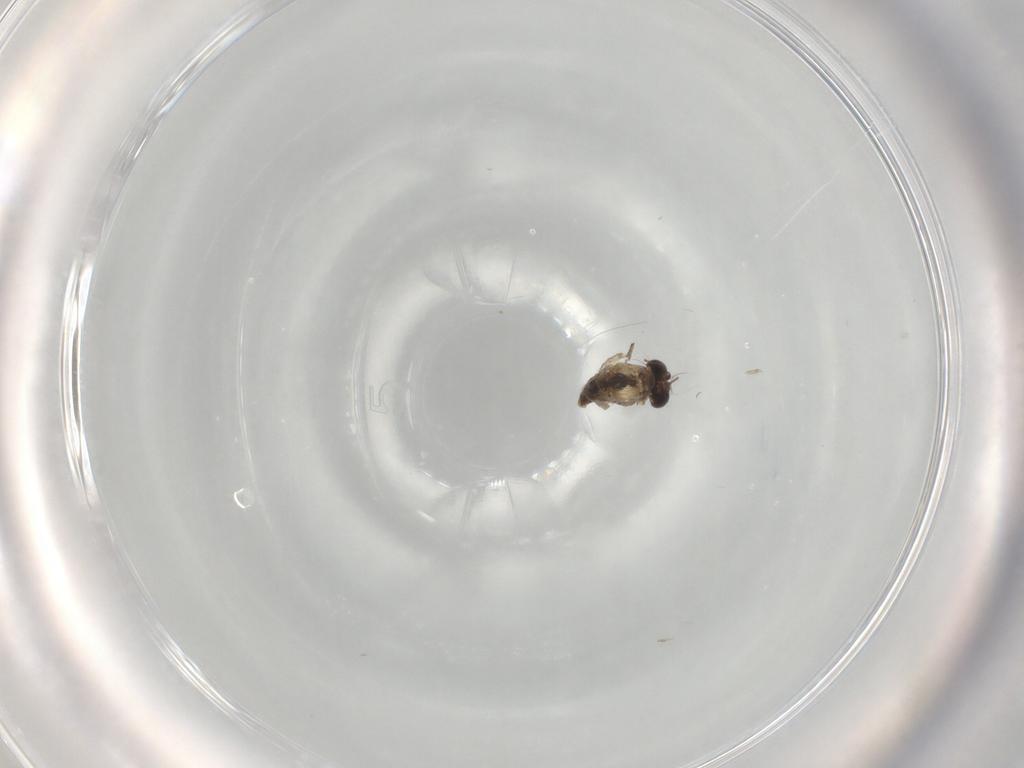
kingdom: Animalia
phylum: Arthropoda
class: Insecta
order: Diptera
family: Chironomidae
